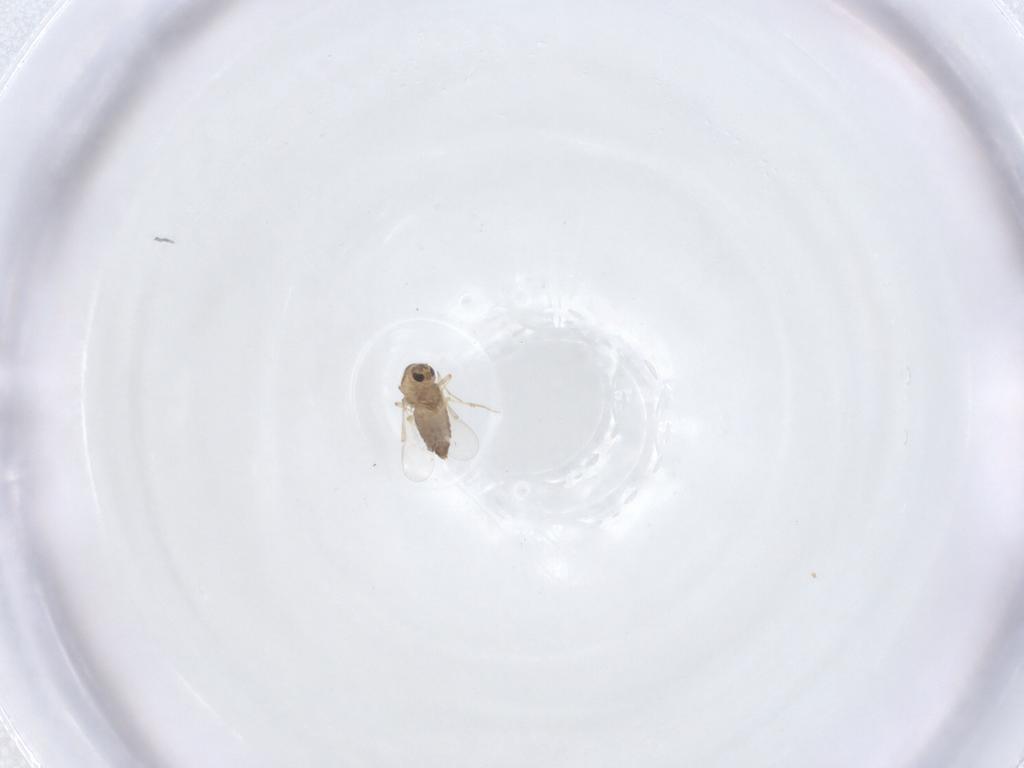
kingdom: Animalia
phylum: Arthropoda
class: Insecta
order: Diptera
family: Chironomidae
